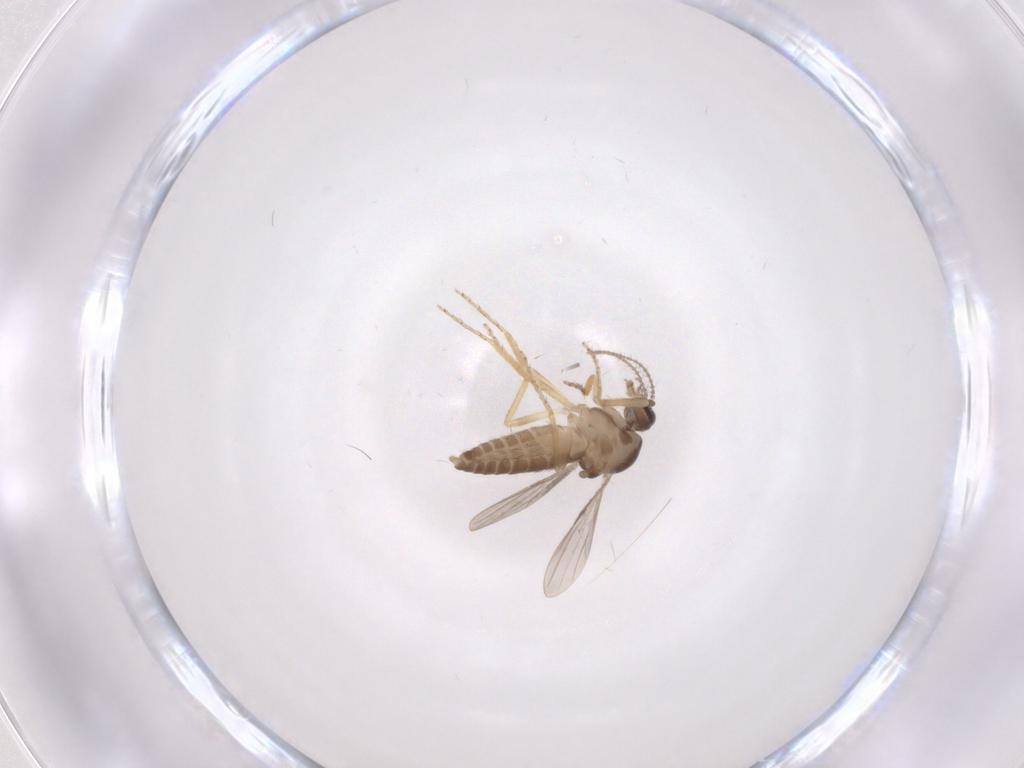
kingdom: Animalia
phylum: Arthropoda
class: Insecta
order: Diptera
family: Ceratopogonidae
